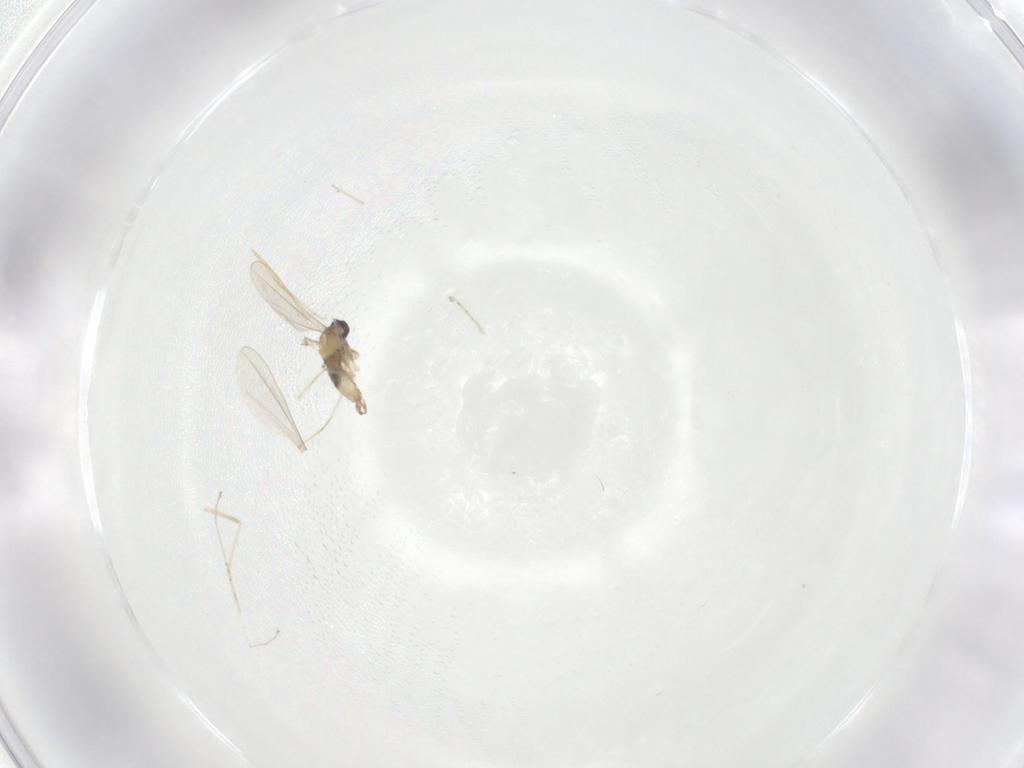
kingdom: Animalia
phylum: Arthropoda
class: Insecta
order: Diptera
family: Cecidomyiidae
